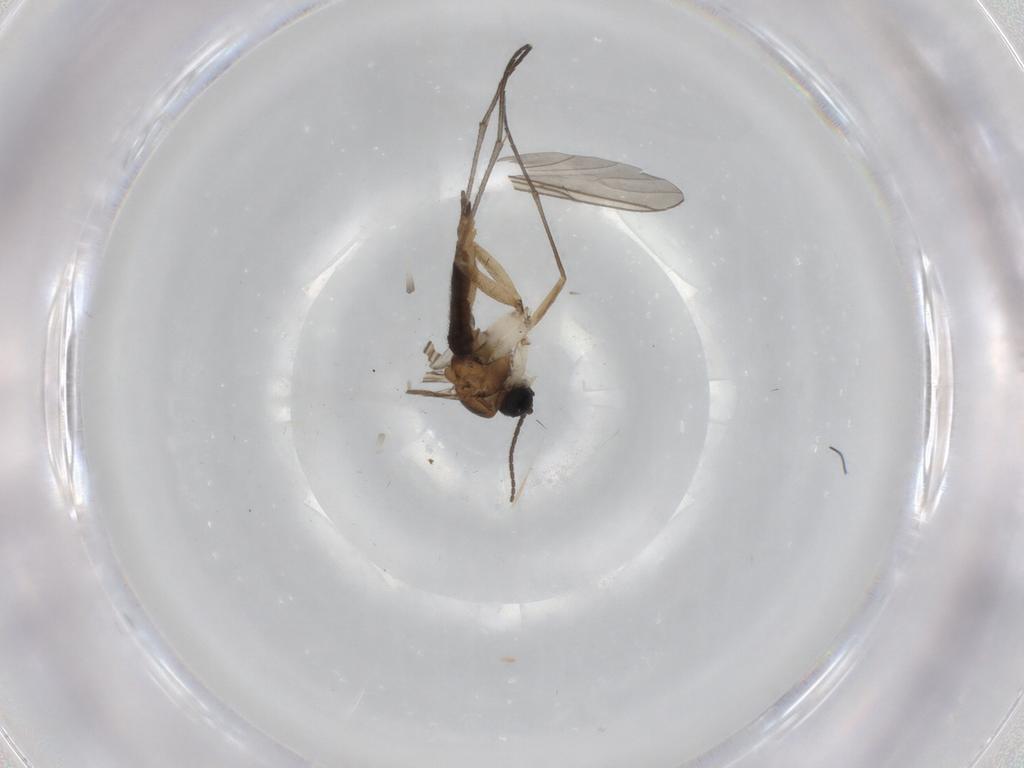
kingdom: Animalia
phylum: Arthropoda
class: Insecta
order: Diptera
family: Sciaridae
